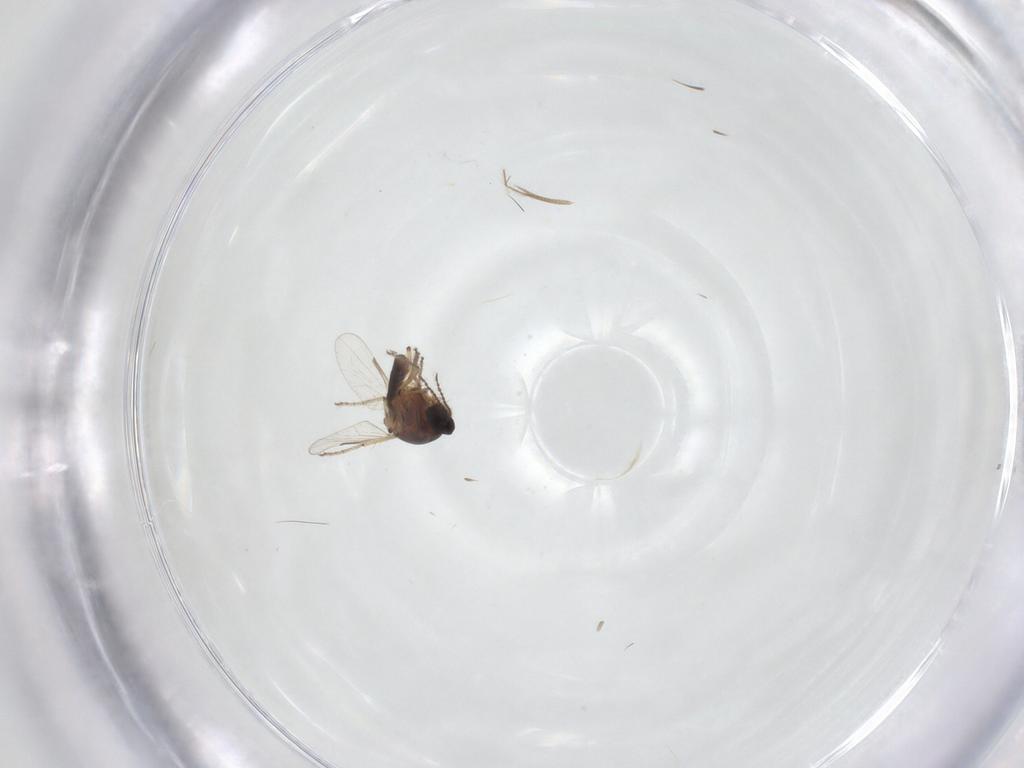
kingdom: Animalia
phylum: Arthropoda
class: Insecta
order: Diptera
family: Ceratopogonidae
